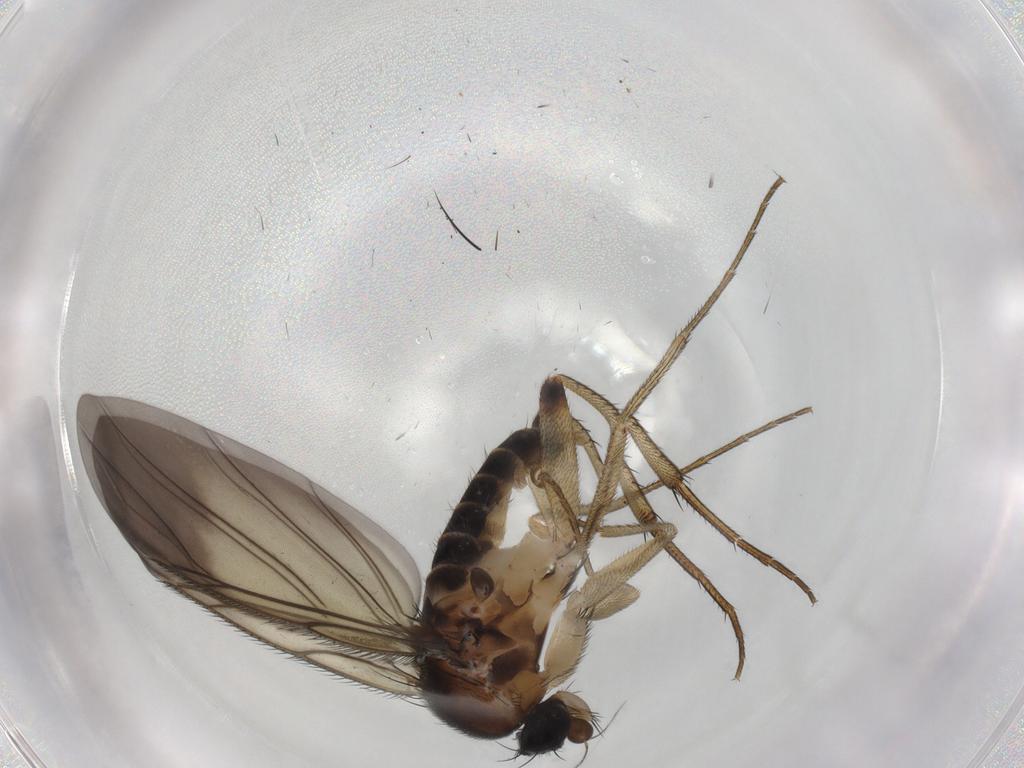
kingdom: Animalia
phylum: Arthropoda
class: Insecta
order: Diptera
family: Phoridae
